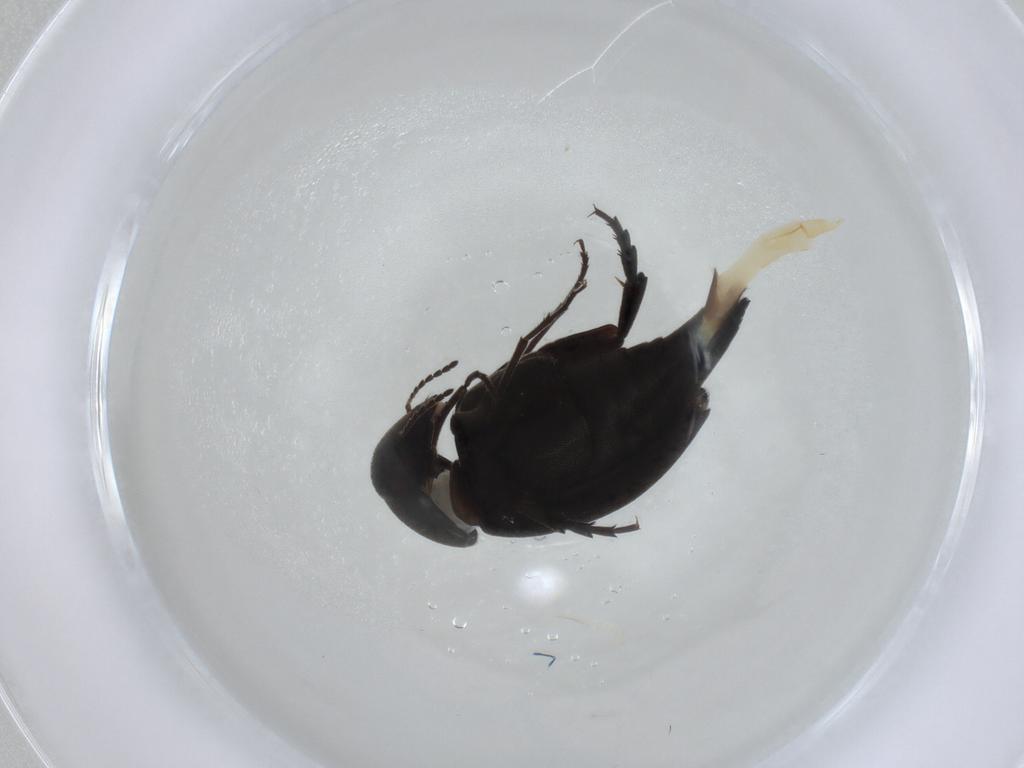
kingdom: Animalia
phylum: Arthropoda
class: Insecta
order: Coleoptera
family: Mordellidae
